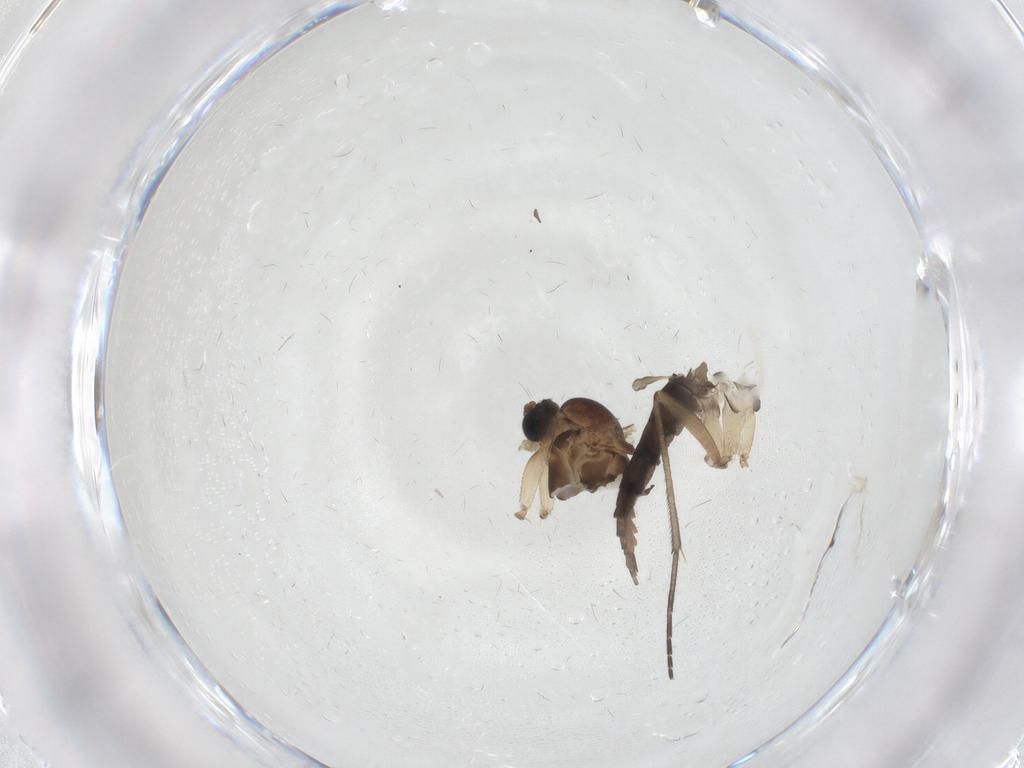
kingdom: Animalia
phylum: Arthropoda
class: Insecta
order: Diptera
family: Sciaridae
